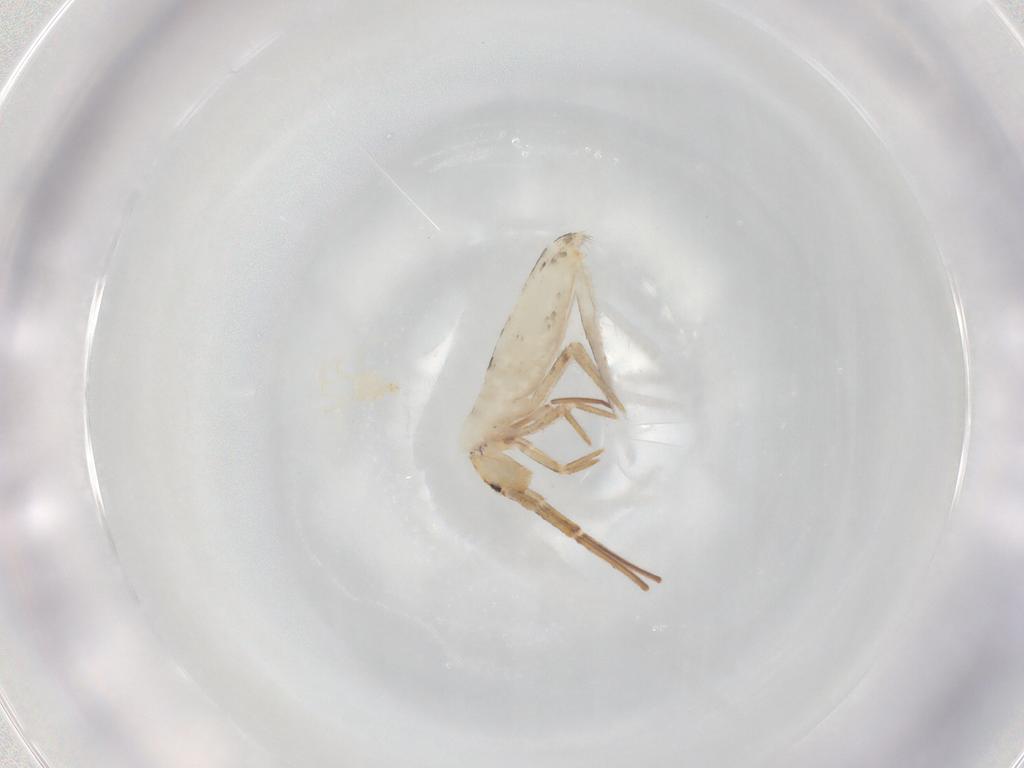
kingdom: Animalia
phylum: Arthropoda
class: Collembola
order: Entomobryomorpha
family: Entomobryidae
